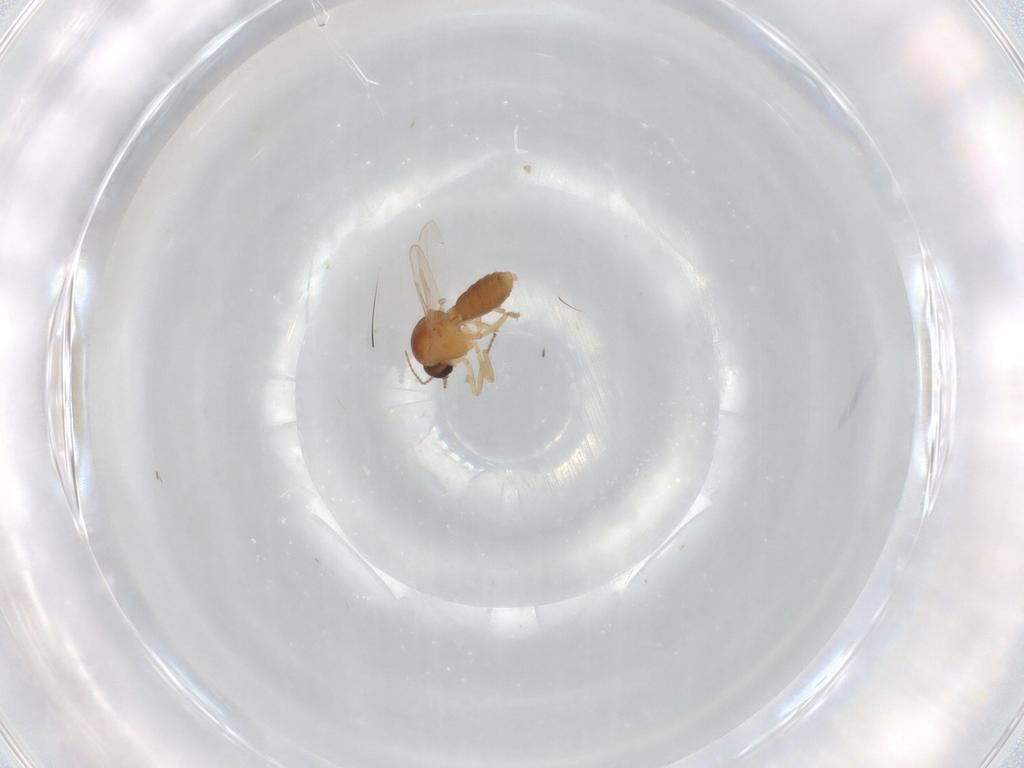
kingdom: Animalia
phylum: Arthropoda
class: Insecta
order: Diptera
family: Ceratopogonidae
